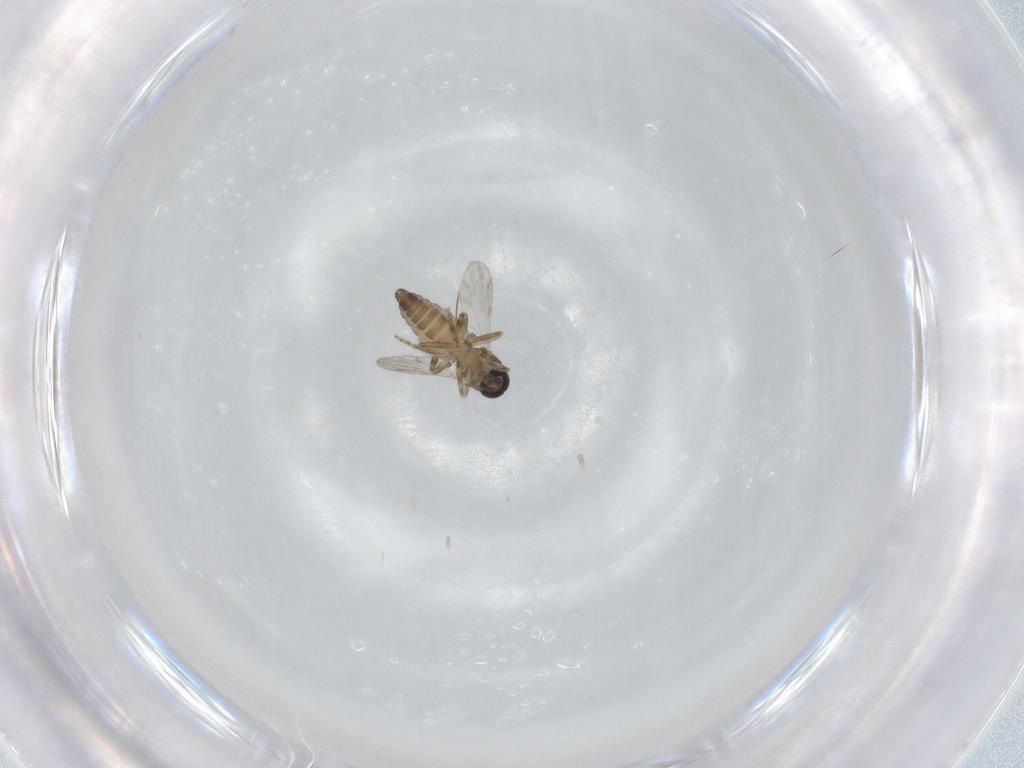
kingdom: Animalia
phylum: Arthropoda
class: Insecta
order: Diptera
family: Ceratopogonidae
